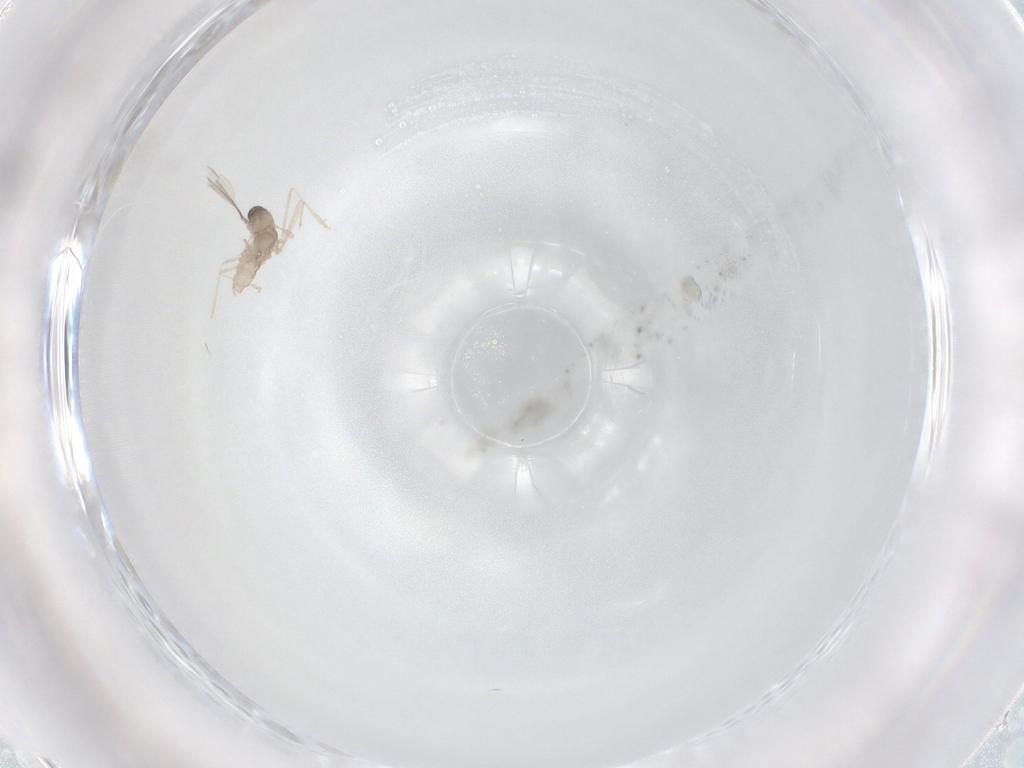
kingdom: Animalia
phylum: Arthropoda
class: Insecta
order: Diptera
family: Cecidomyiidae
